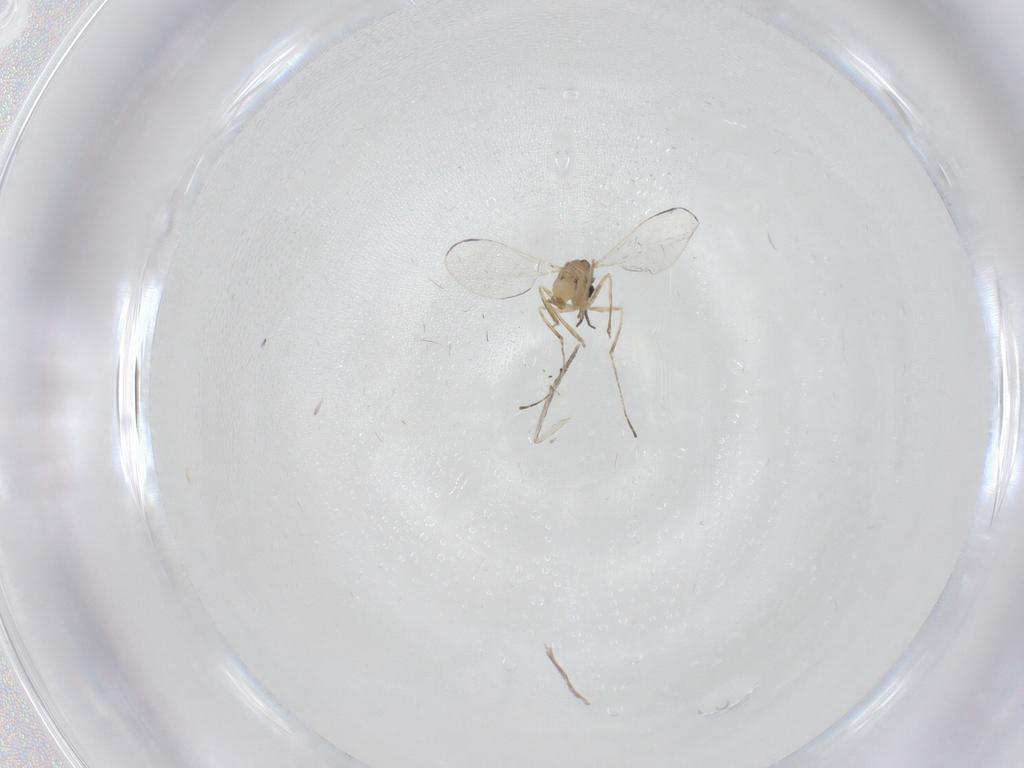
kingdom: Animalia
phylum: Arthropoda
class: Insecta
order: Diptera
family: Cecidomyiidae
